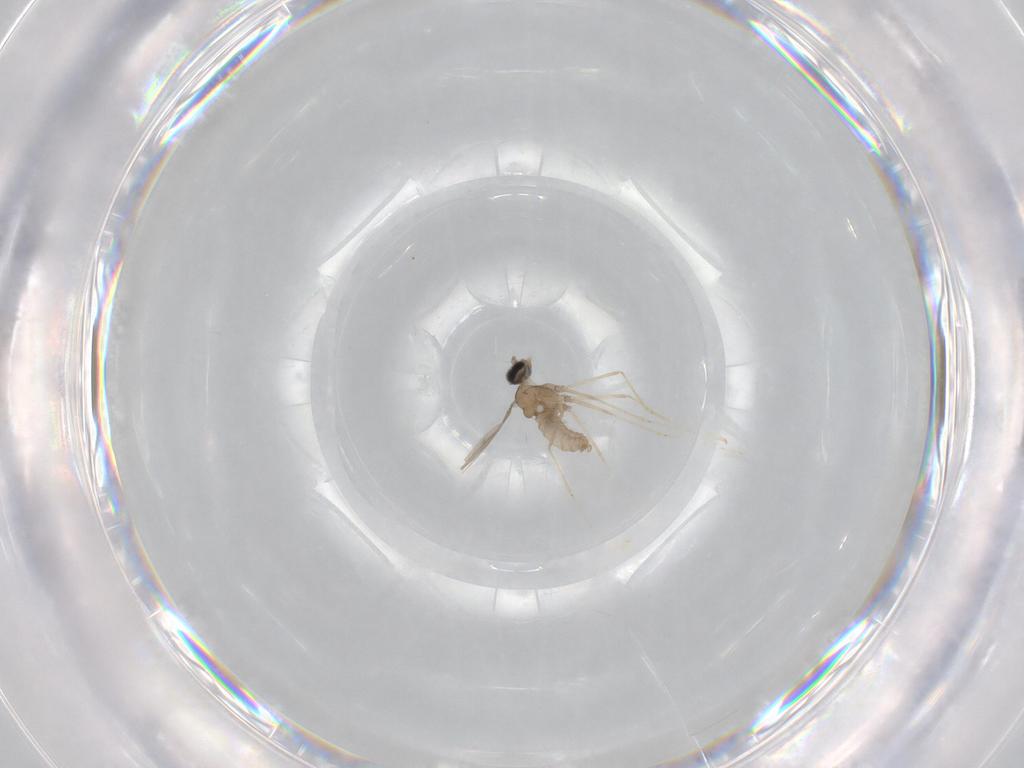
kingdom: Animalia
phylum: Arthropoda
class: Insecta
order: Diptera
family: Cecidomyiidae
